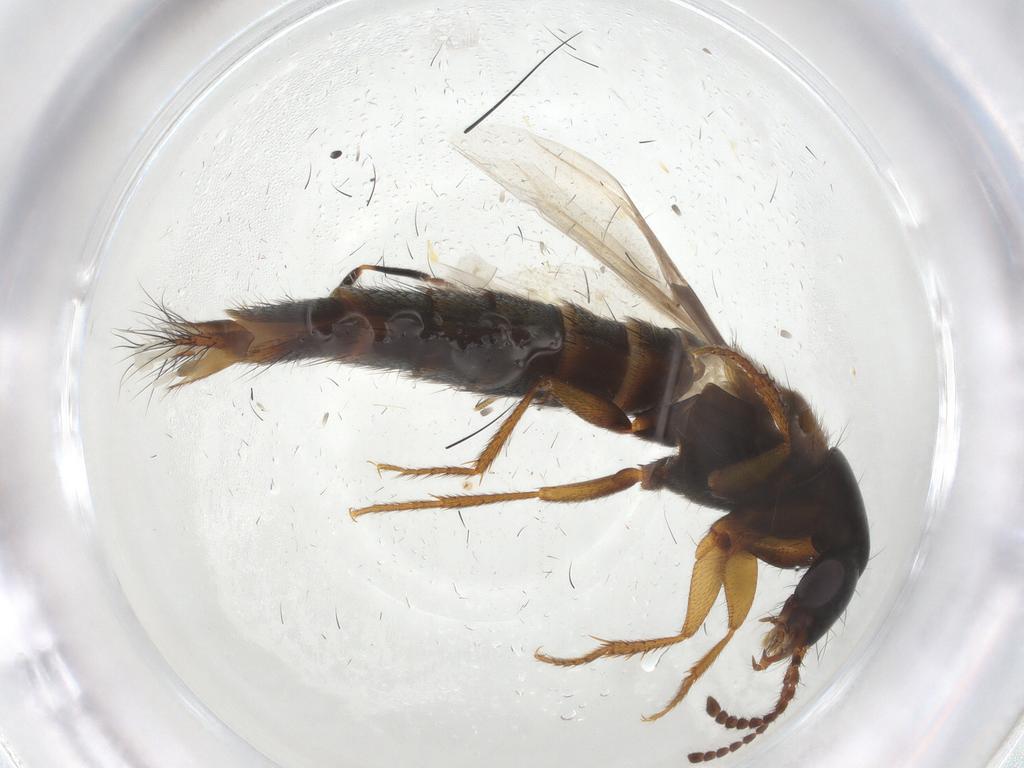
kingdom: Animalia
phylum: Arthropoda
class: Insecta
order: Coleoptera
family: Staphylinidae
